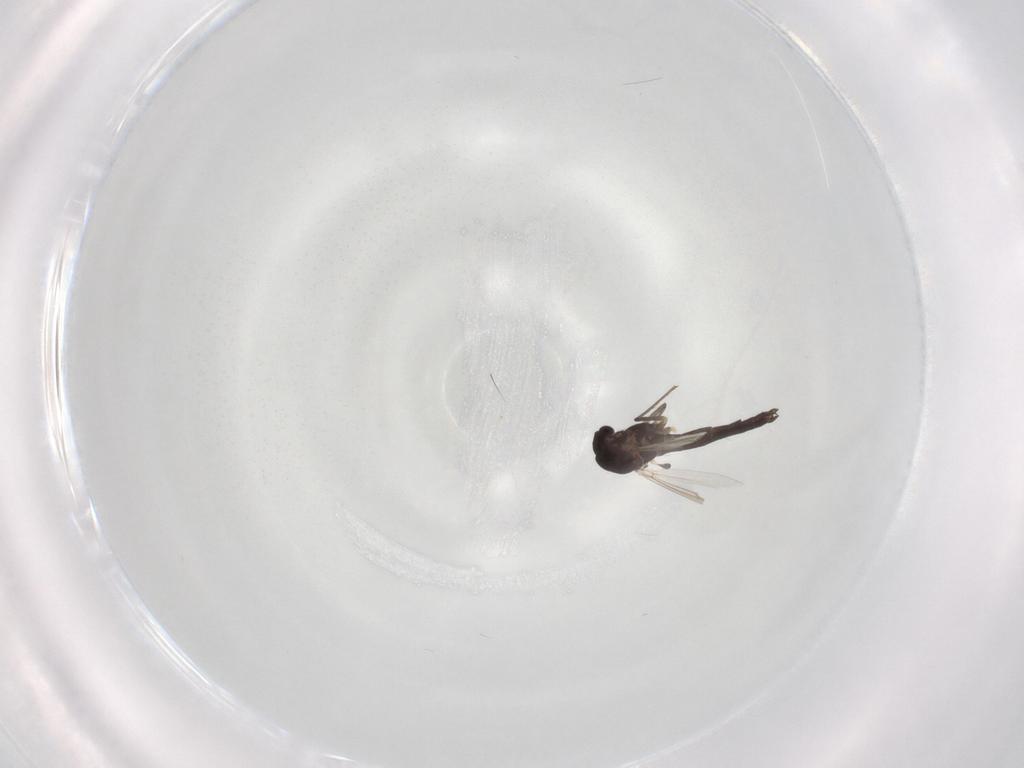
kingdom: Animalia
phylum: Arthropoda
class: Insecta
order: Diptera
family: Chironomidae
